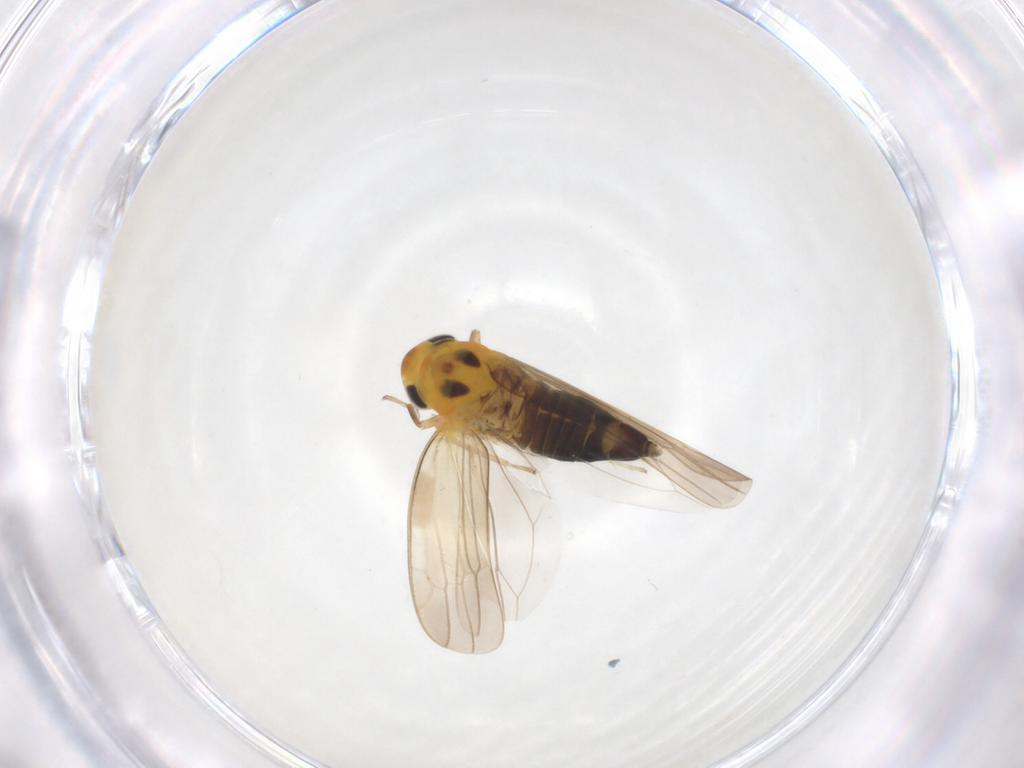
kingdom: Animalia
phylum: Arthropoda
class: Insecta
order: Hemiptera
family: Cicadellidae
